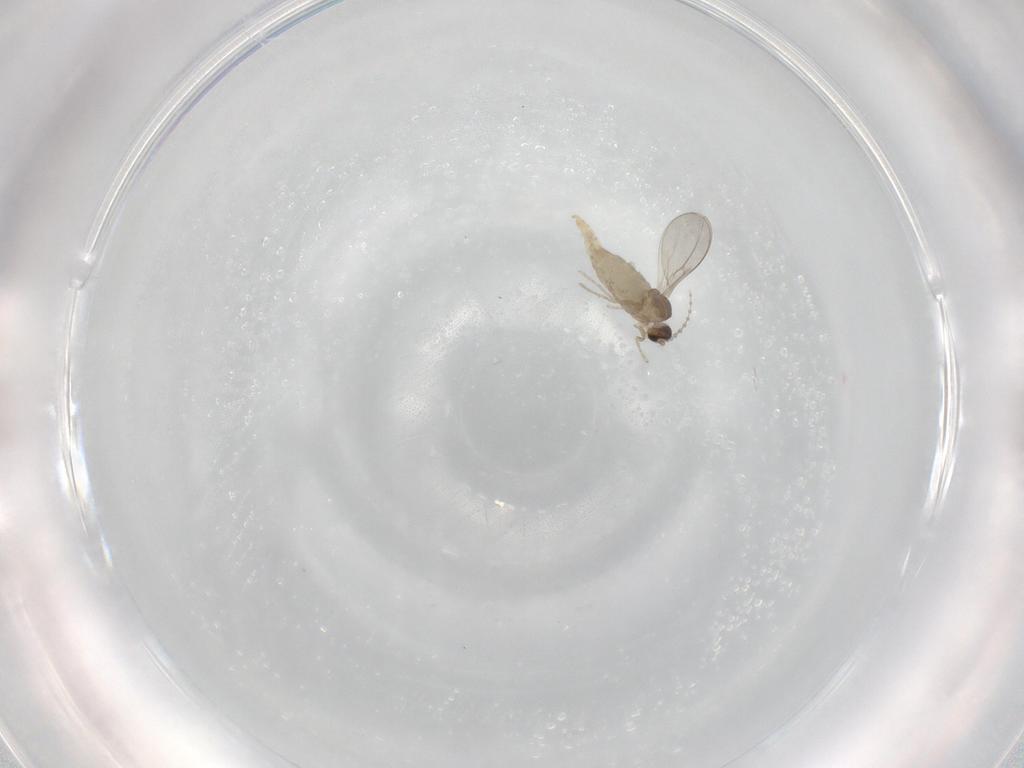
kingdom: Animalia
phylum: Arthropoda
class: Insecta
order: Diptera
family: Cecidomyiidae
